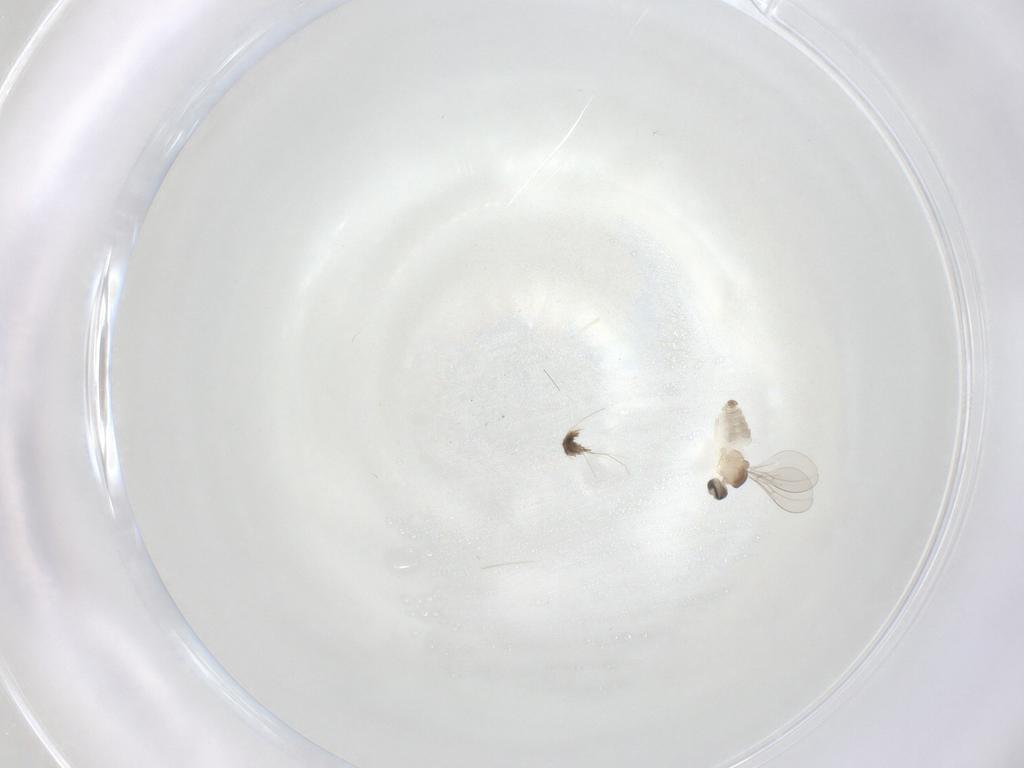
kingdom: Animalia
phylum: Arthropoda
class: Insecta
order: Diptera
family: Cecidomyiidae
